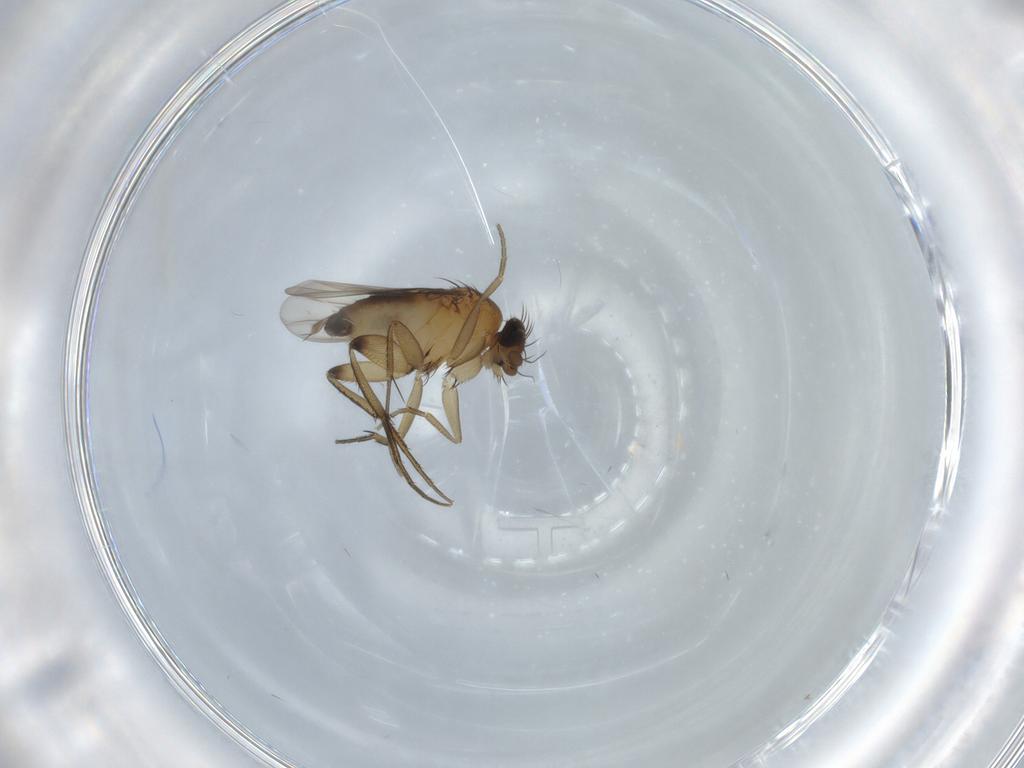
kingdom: Animalia
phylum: Arthropoda
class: Insecta
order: Diptera
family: Phoridae
